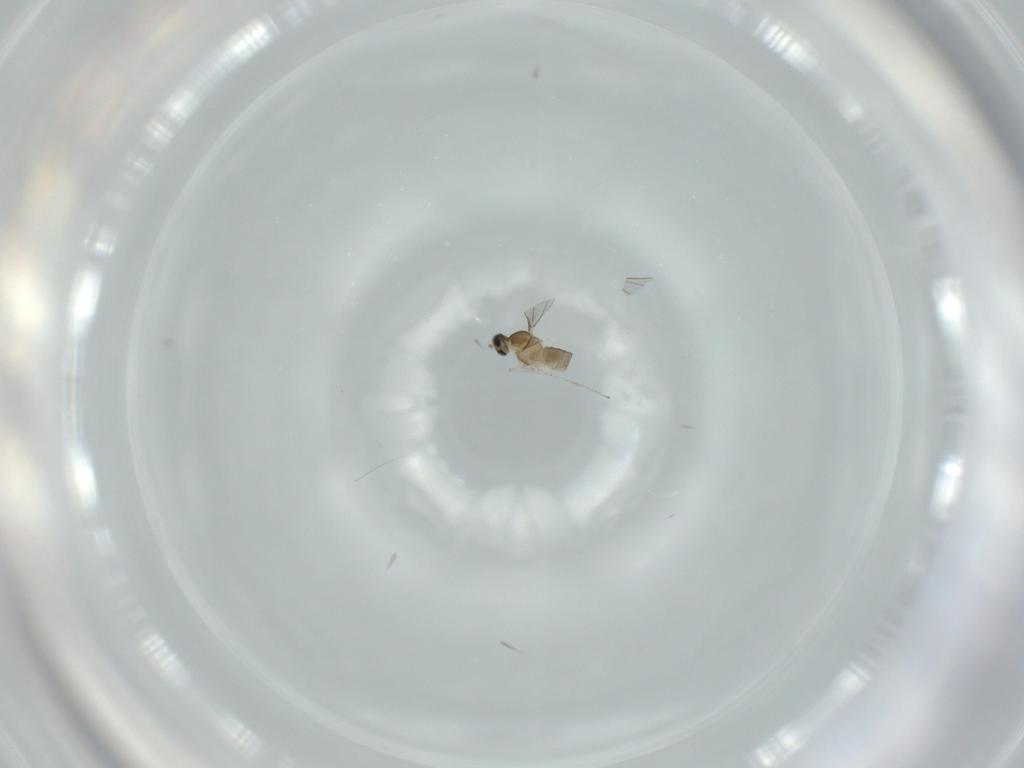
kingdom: Animalia
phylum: Arthropoda
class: Insecta
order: Diptera
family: Cecidomyiidae
